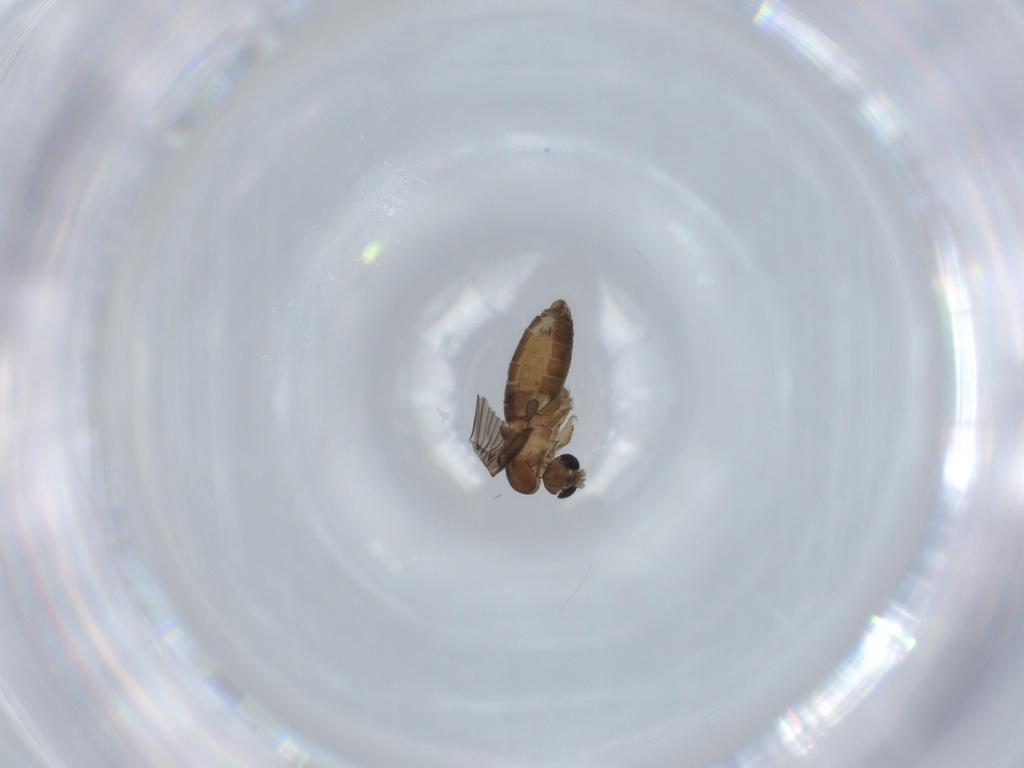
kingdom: Animalia
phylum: Arthropoda
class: Insecta
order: Diptera
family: Psychodidae
